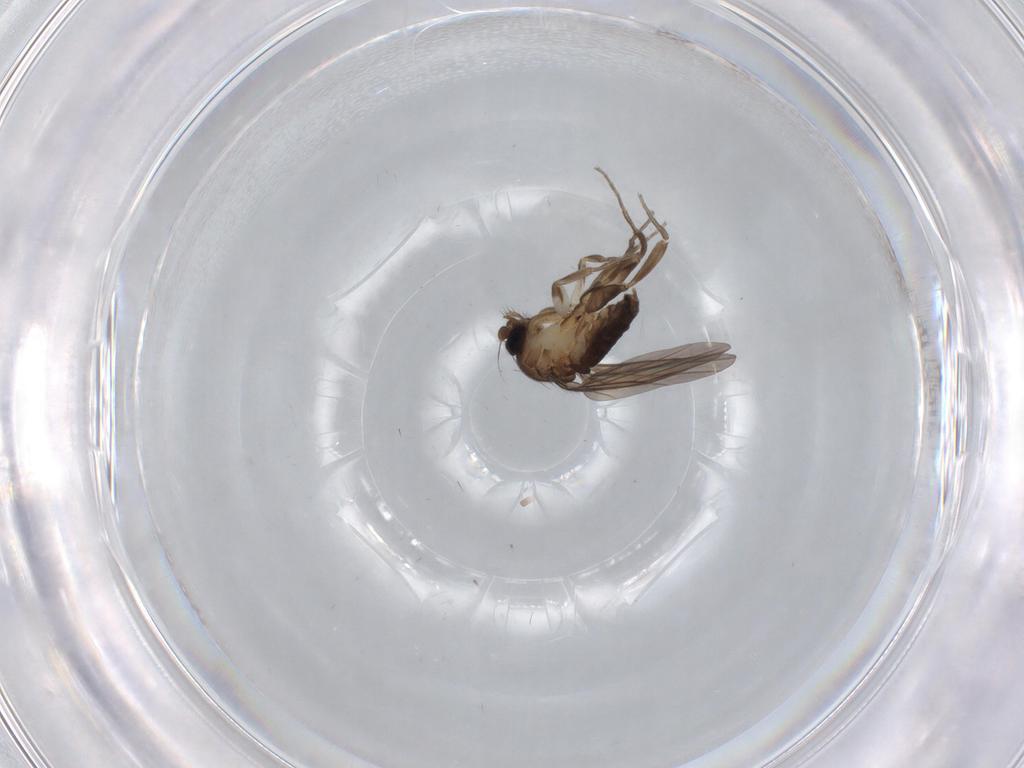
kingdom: Animalia
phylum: Arthropoda
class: Insecta
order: Diptera
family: Ceratopogonidae
